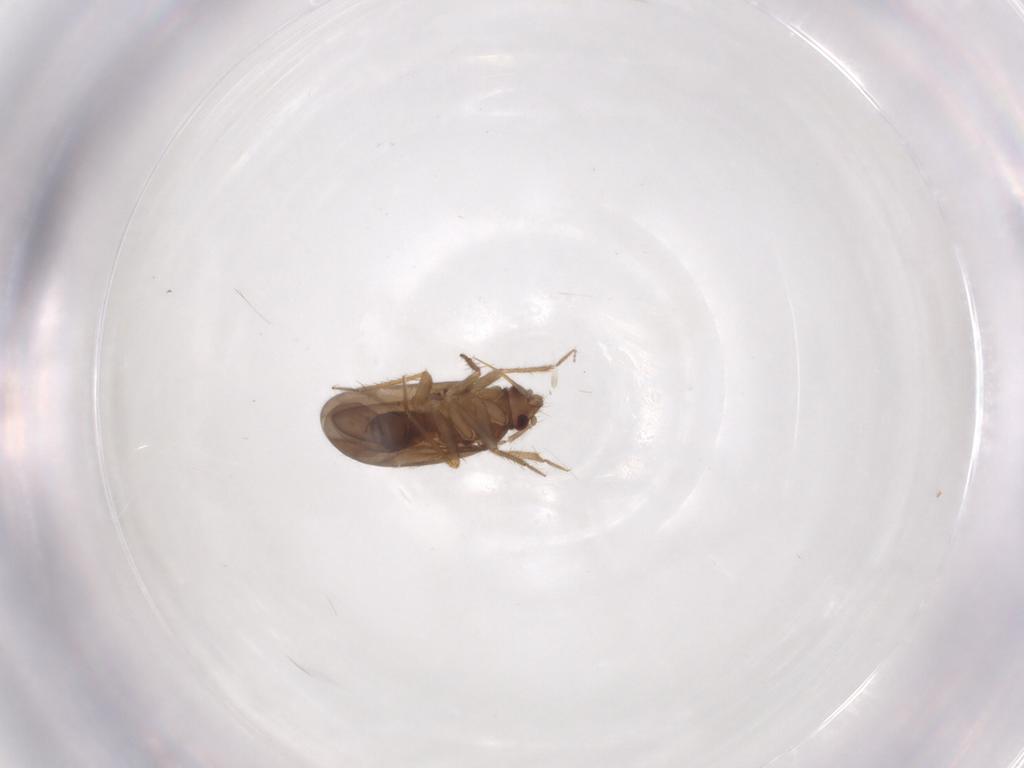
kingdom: Animalia
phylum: Arthropoda
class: Insecta
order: Hemiptera
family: Ceratocombidae
